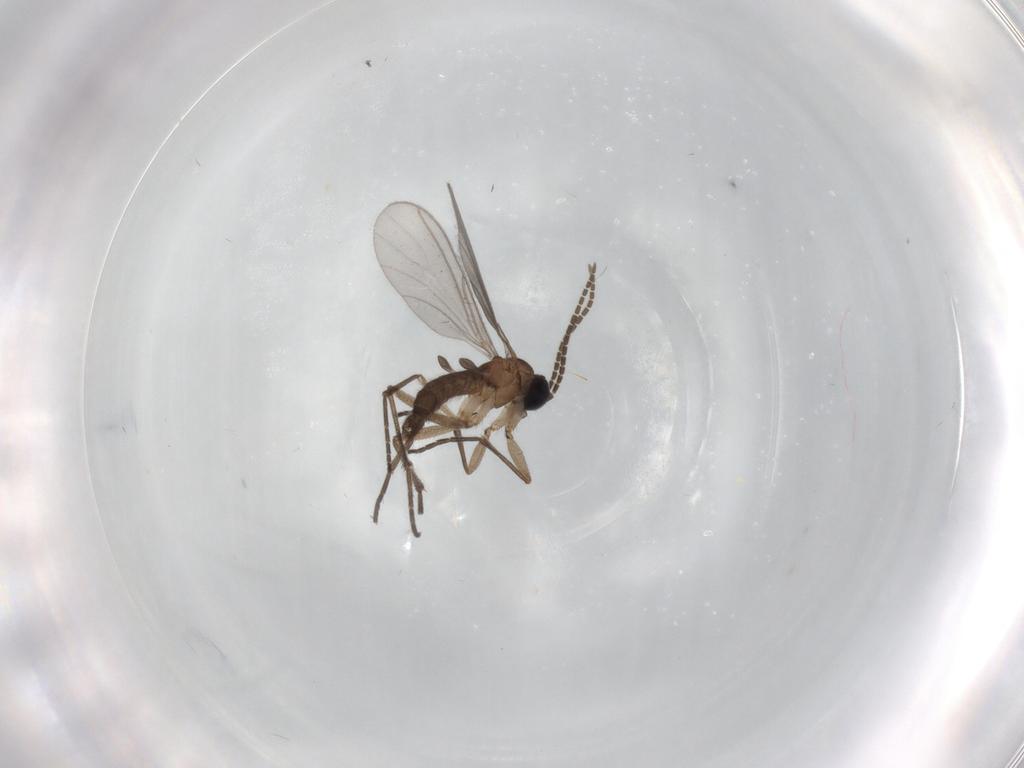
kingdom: Animalia
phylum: Arthropoda
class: Insecta
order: Diptera
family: Sciaridae
